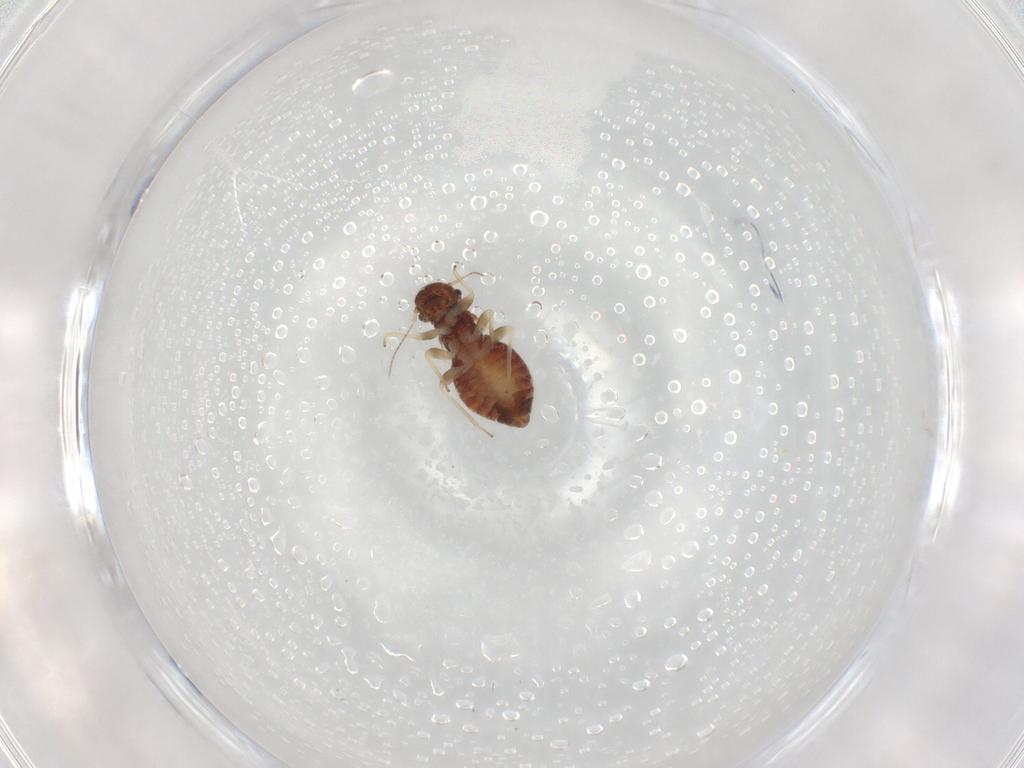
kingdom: Animalia
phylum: Arthropoda
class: Insecta
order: Psocodea
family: Archipsocidae
